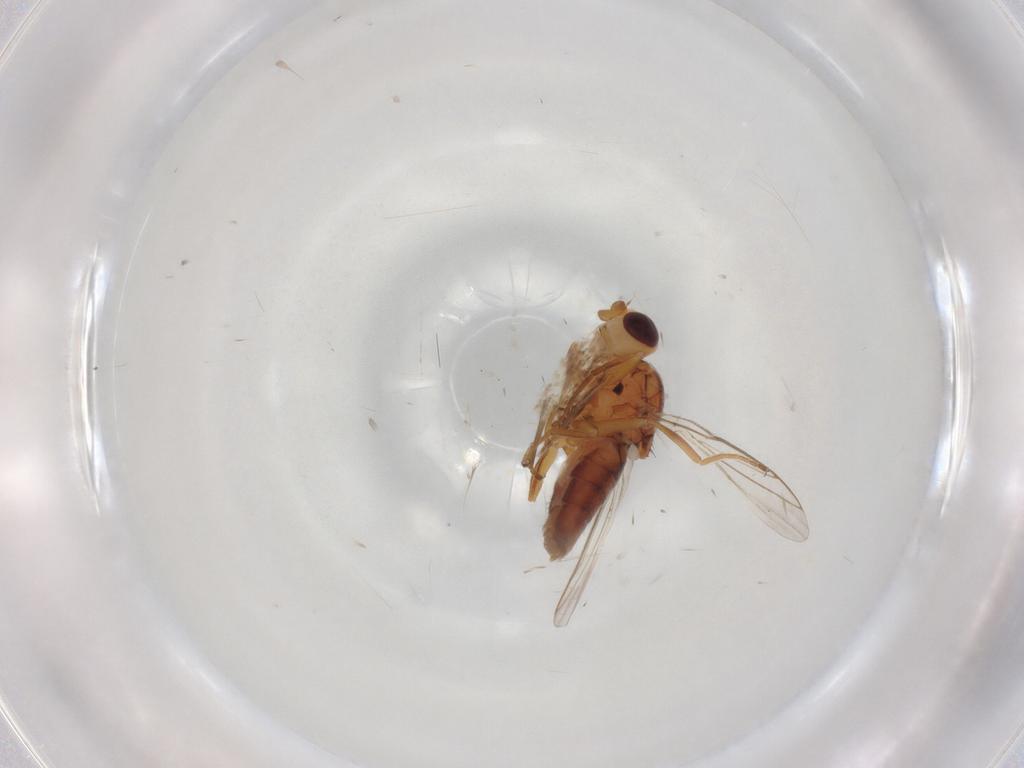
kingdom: Animalia
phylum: Arthropoda
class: Insecta
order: Diptera
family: Chloropidae
